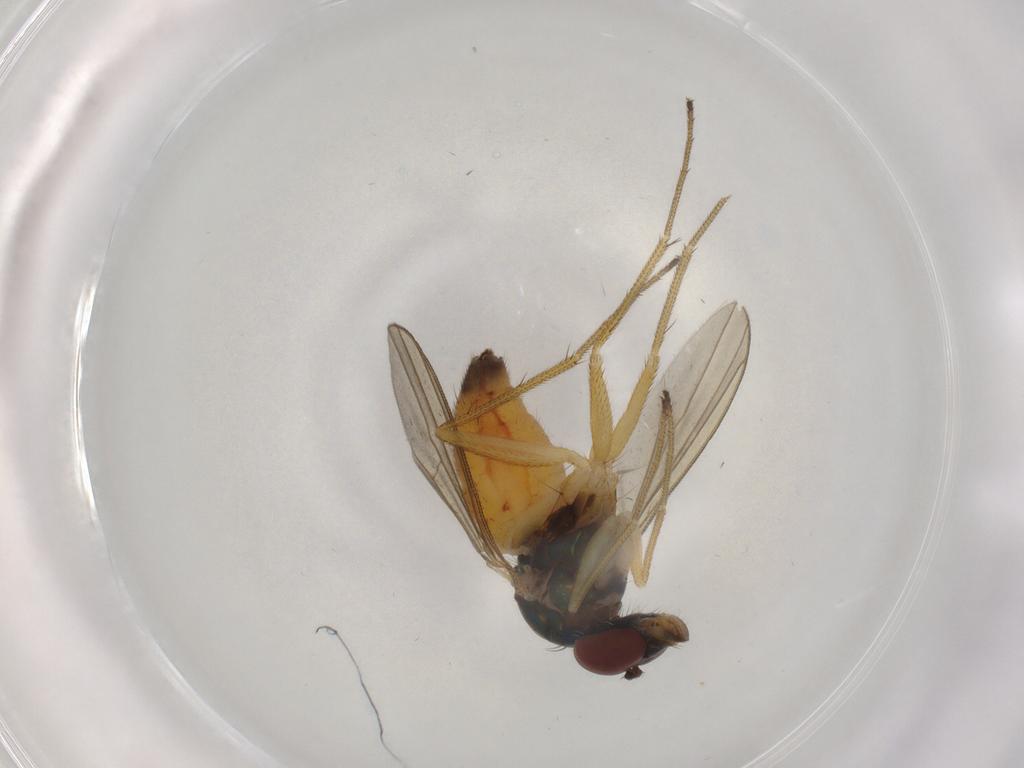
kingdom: Animalia
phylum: Arthropoda
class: Insecta
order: Diptera
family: Dolichopodidae
